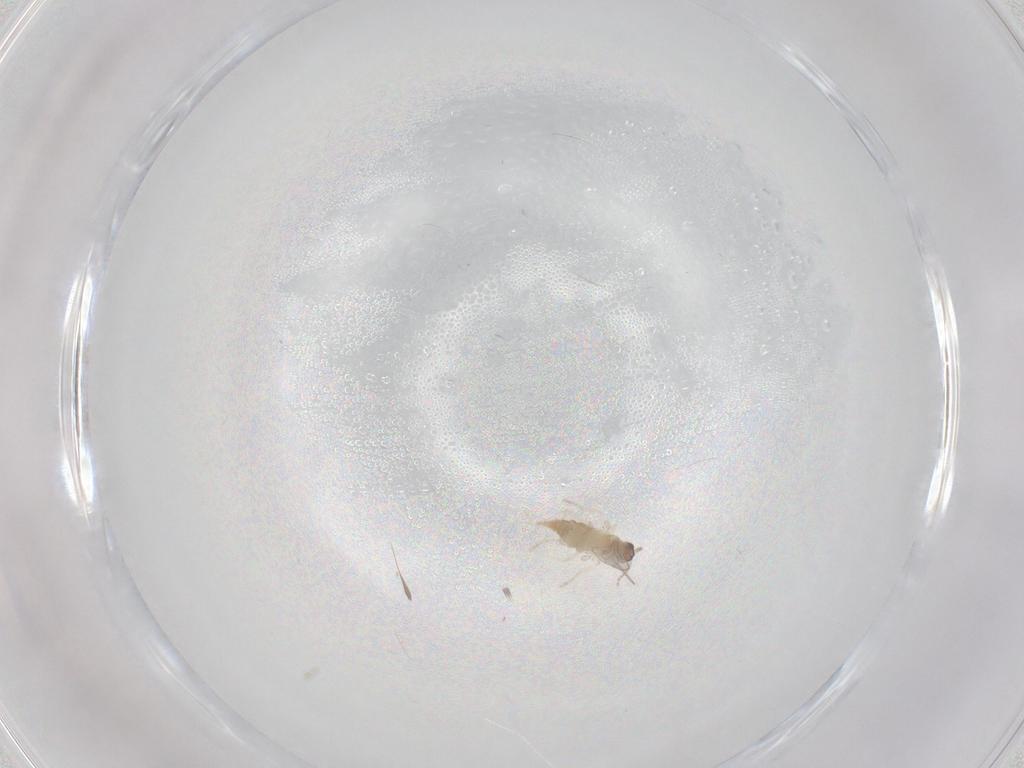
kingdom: Animalia
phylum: Arthropoda
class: Insecta
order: Diptera
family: Cecidomyiidae
